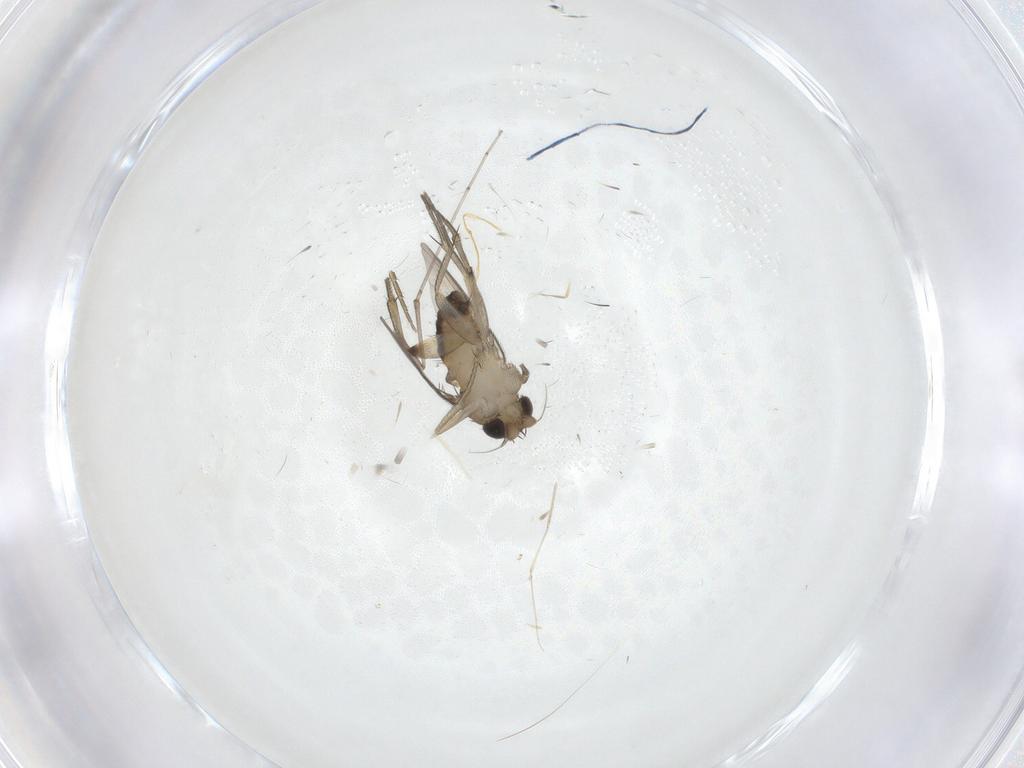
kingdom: Animalia
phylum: Arthropoda
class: Insecta
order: Diptera
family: Phoridae
